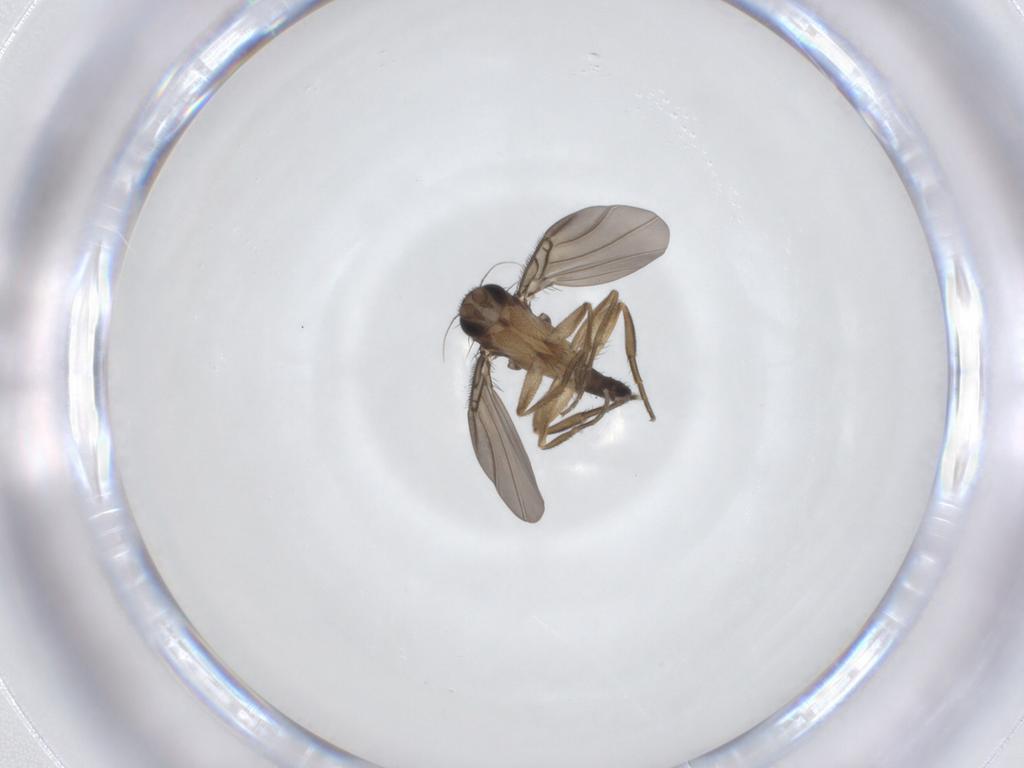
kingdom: Animalia
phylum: Arthropoda
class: Insecta
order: Diptera
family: Phoridae
